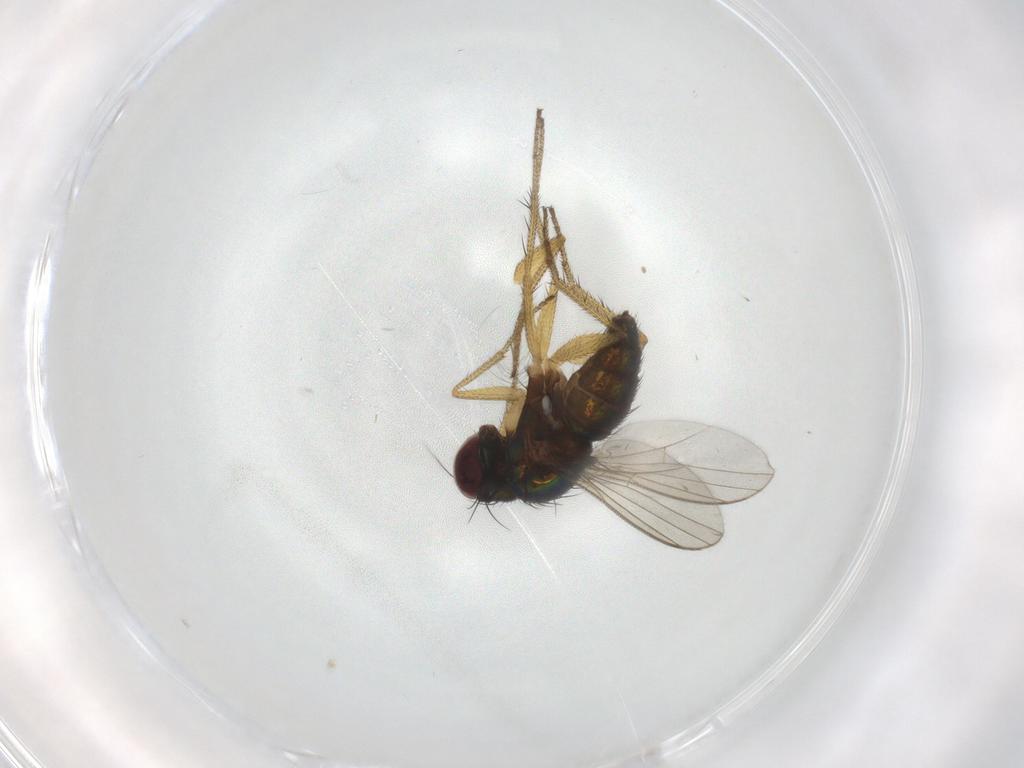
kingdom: Animalia
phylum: Arthropoda
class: Insecta
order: Diptera
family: Dolichopodidae
